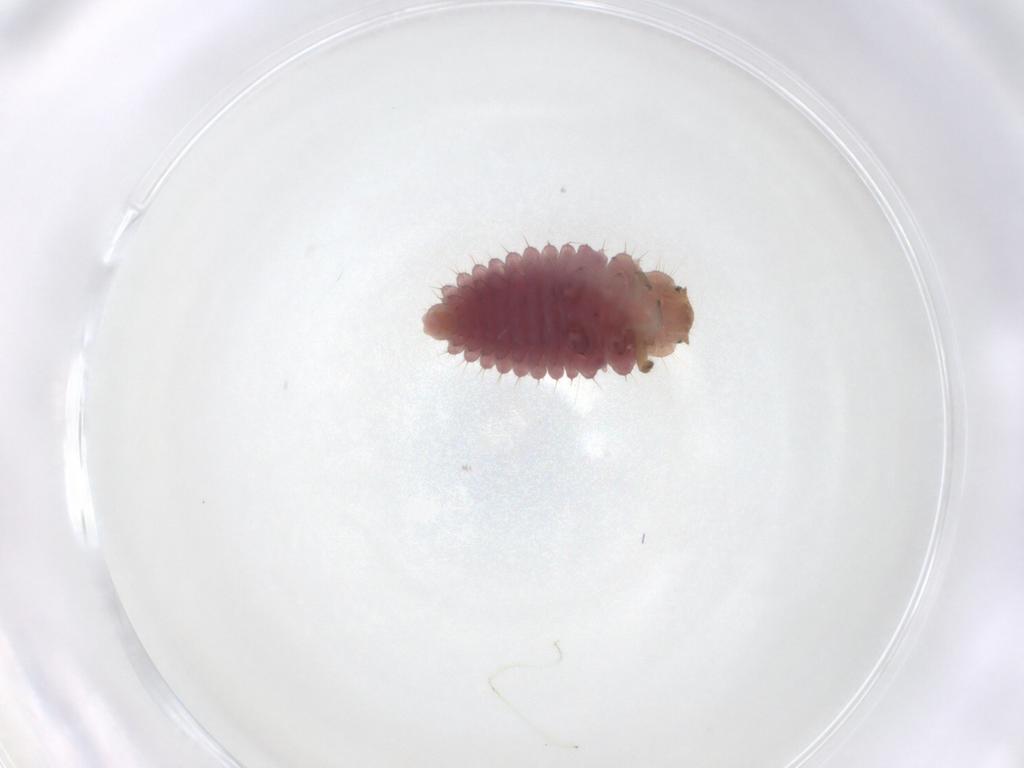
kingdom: Animalia
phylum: Arthropoda
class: Insecta
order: Coleoptera
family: Coccinellidae
